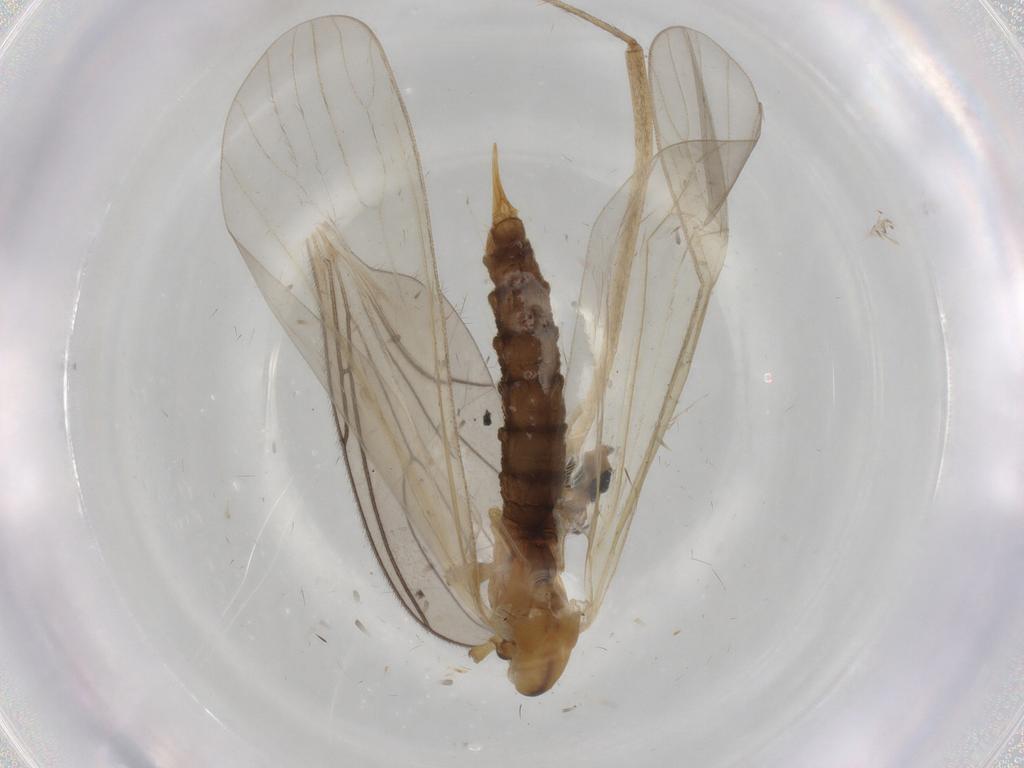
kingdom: Animalia
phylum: Arthropoda
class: Insecta
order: Diptera
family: Limoniidae
